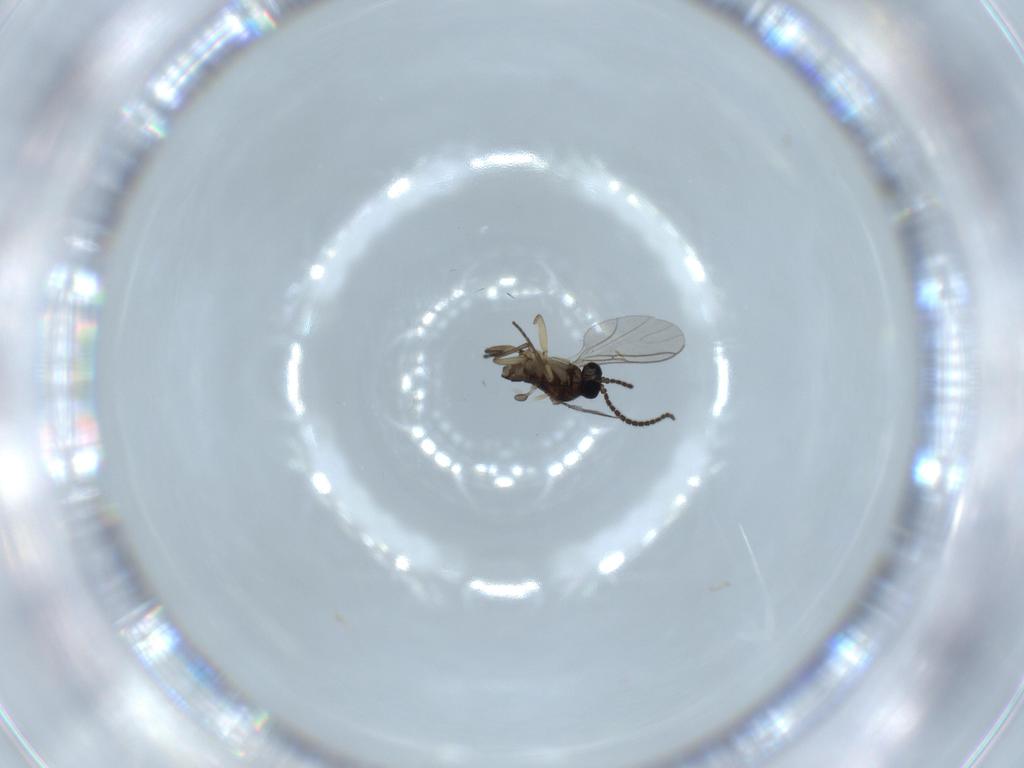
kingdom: Animalia
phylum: Arthropoda
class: Insecta
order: Diptera
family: Sciaridae
